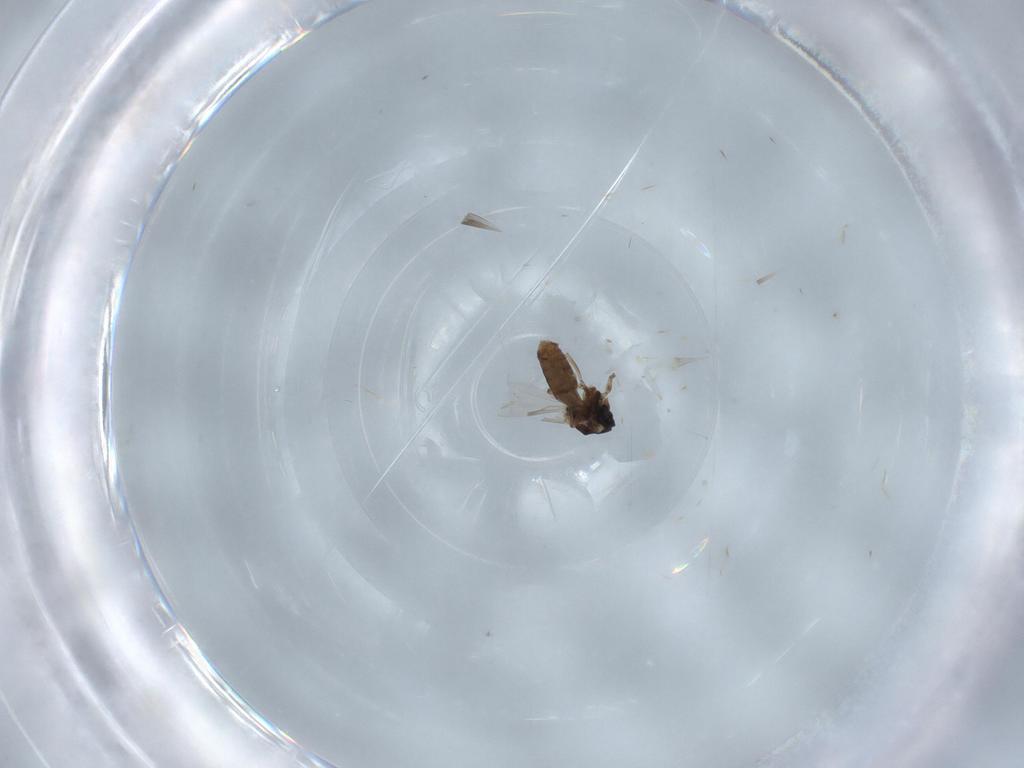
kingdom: Animalia
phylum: Arthropoda
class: Insecta
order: Diptera
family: Ceratopogonidae
